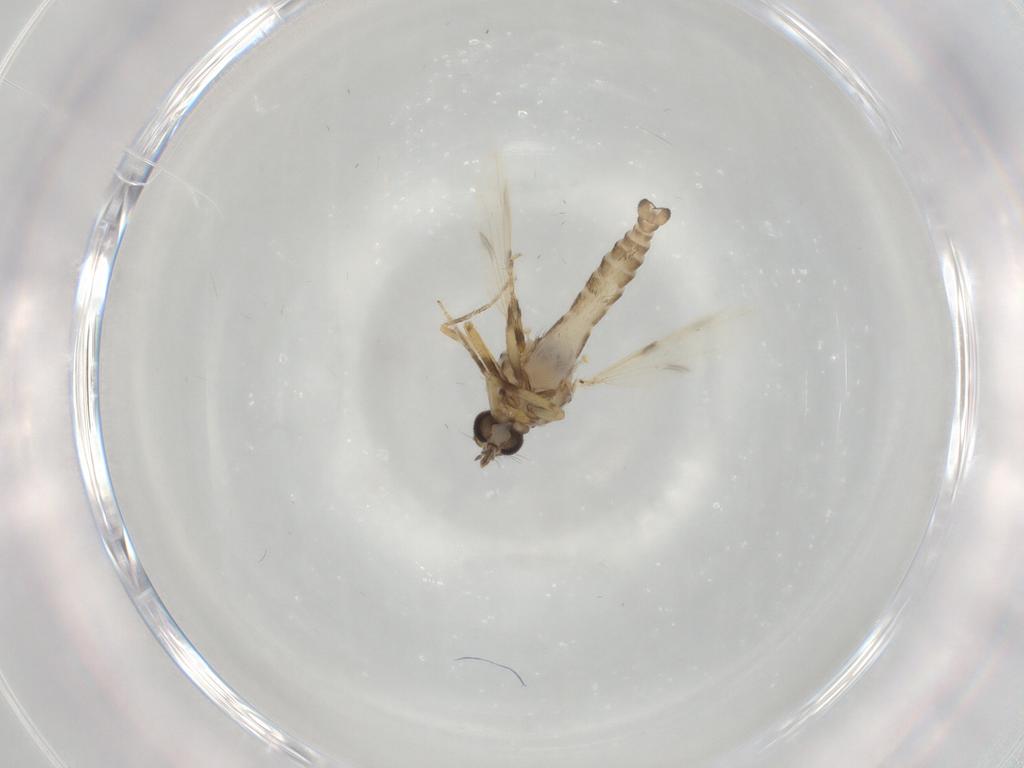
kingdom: Animalia
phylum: Arthropoda
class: Insecta
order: Diptera
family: Ceratopogonidae
